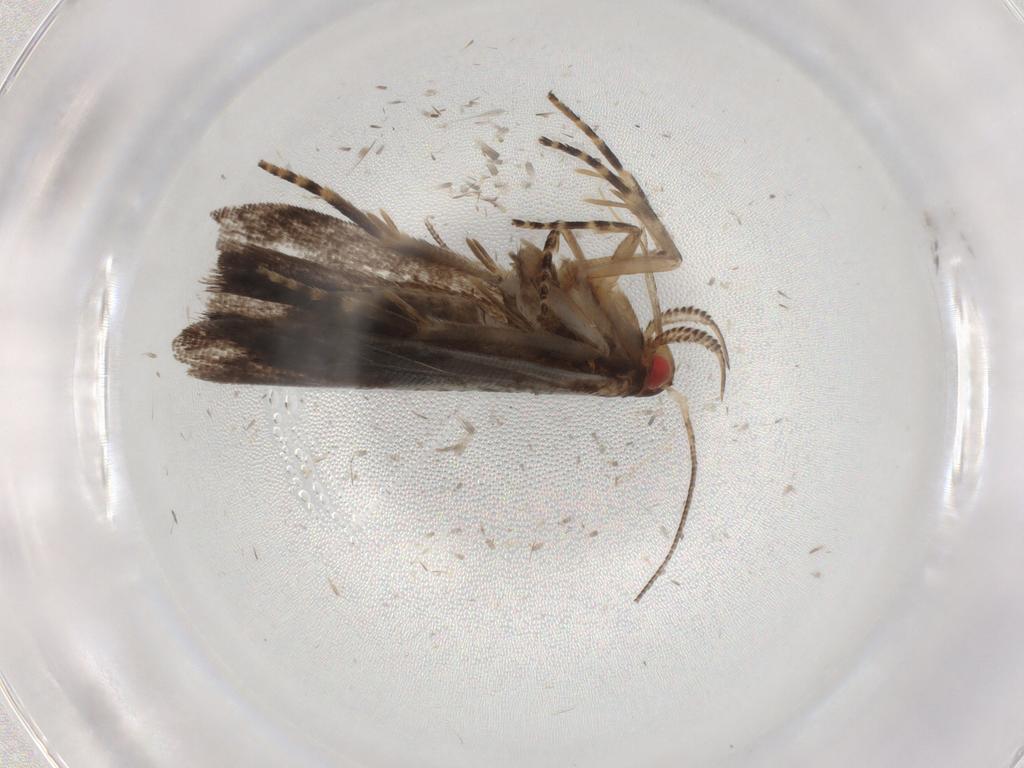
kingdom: Animalia
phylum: Arthropoda
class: Insecta
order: Lepidoptera
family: Gelechiidae
